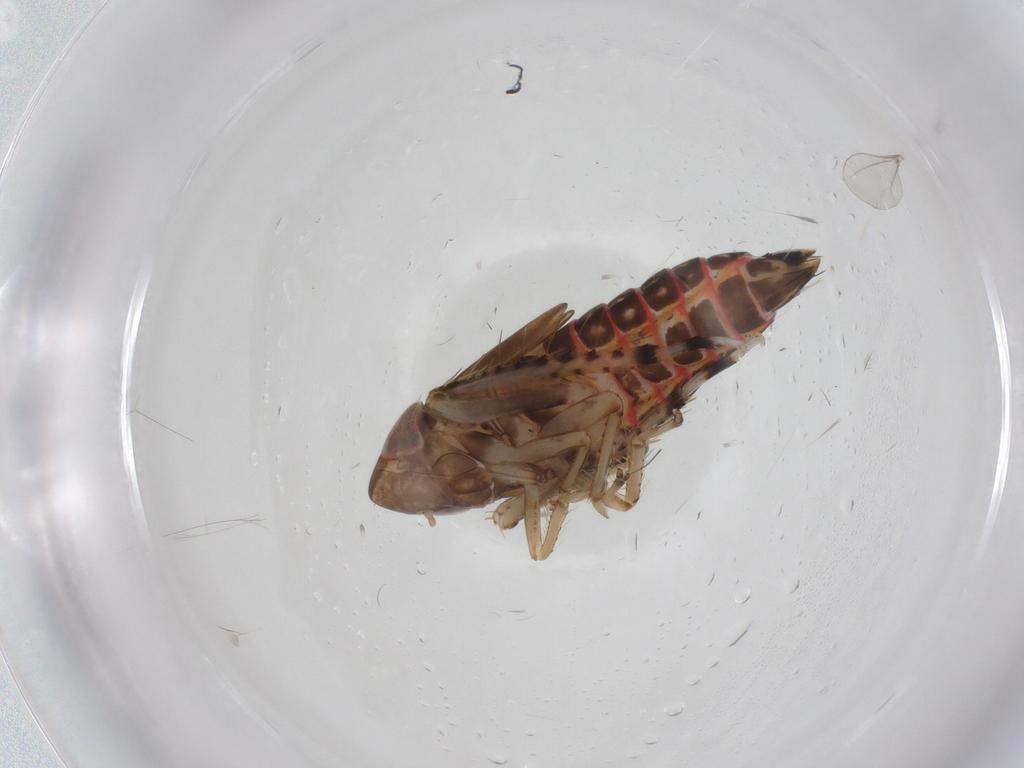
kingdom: Animalia
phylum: Arthropoda
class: Insecta
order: Hemiptera
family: Cicadellidae
